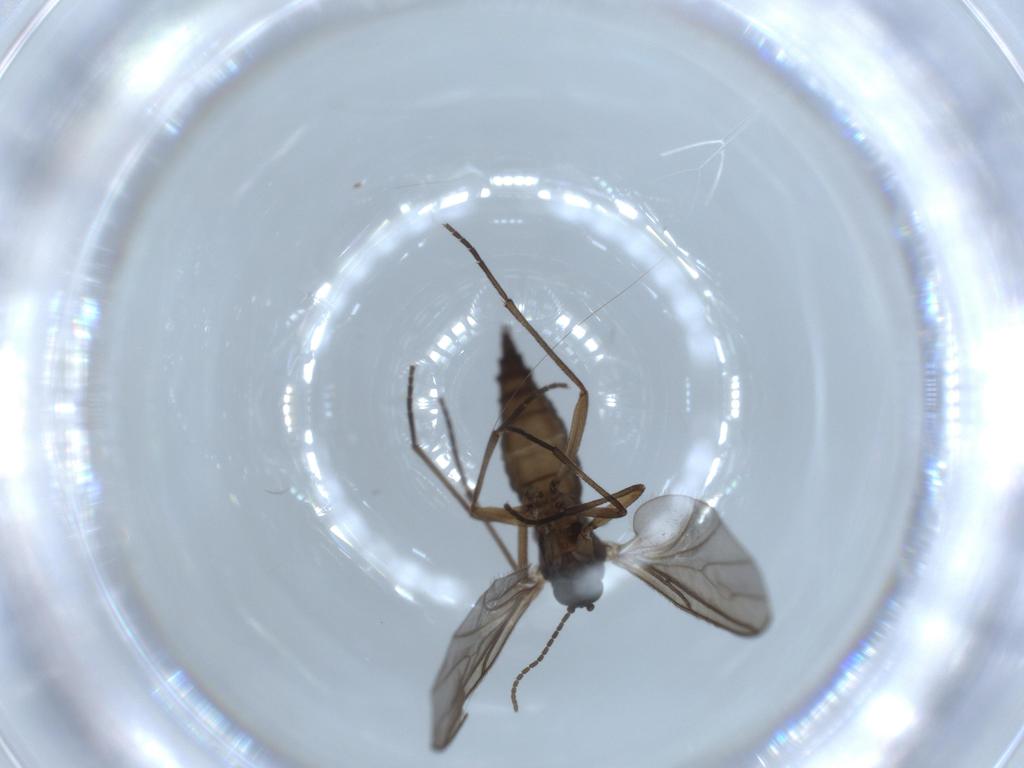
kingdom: Animalia
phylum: Arthropoda
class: Insecta
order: Diptera
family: Sciaridae
